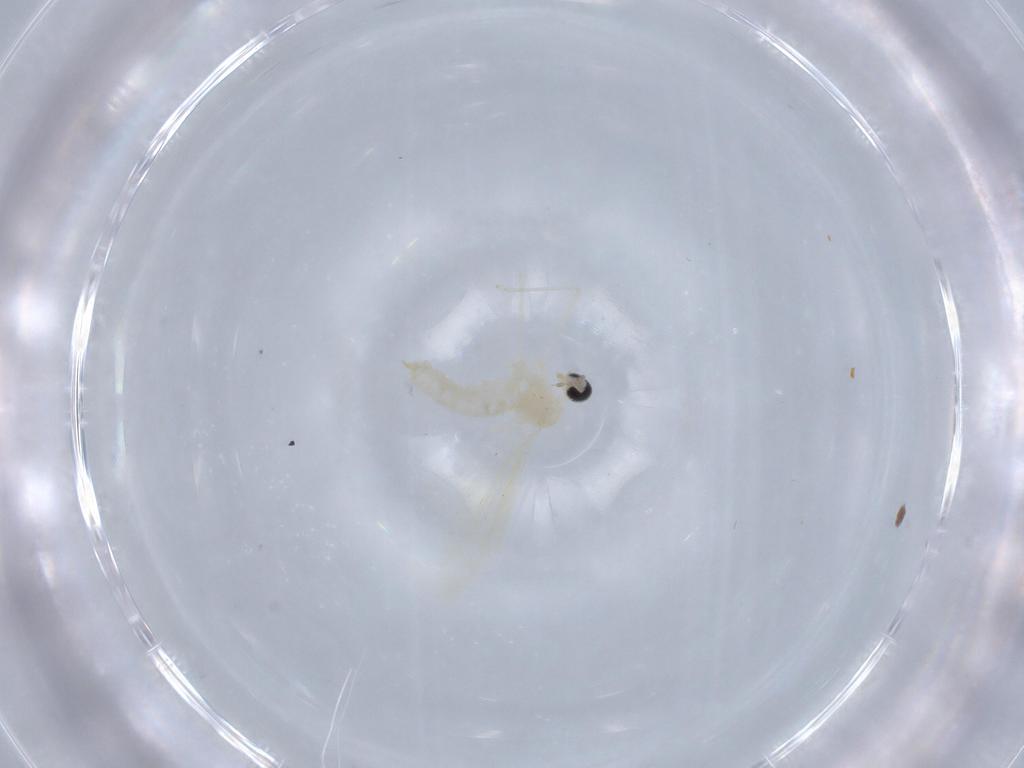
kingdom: Animalia
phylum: Arthropoda
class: Insecta
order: Diptera
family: Cecidomyiidae
